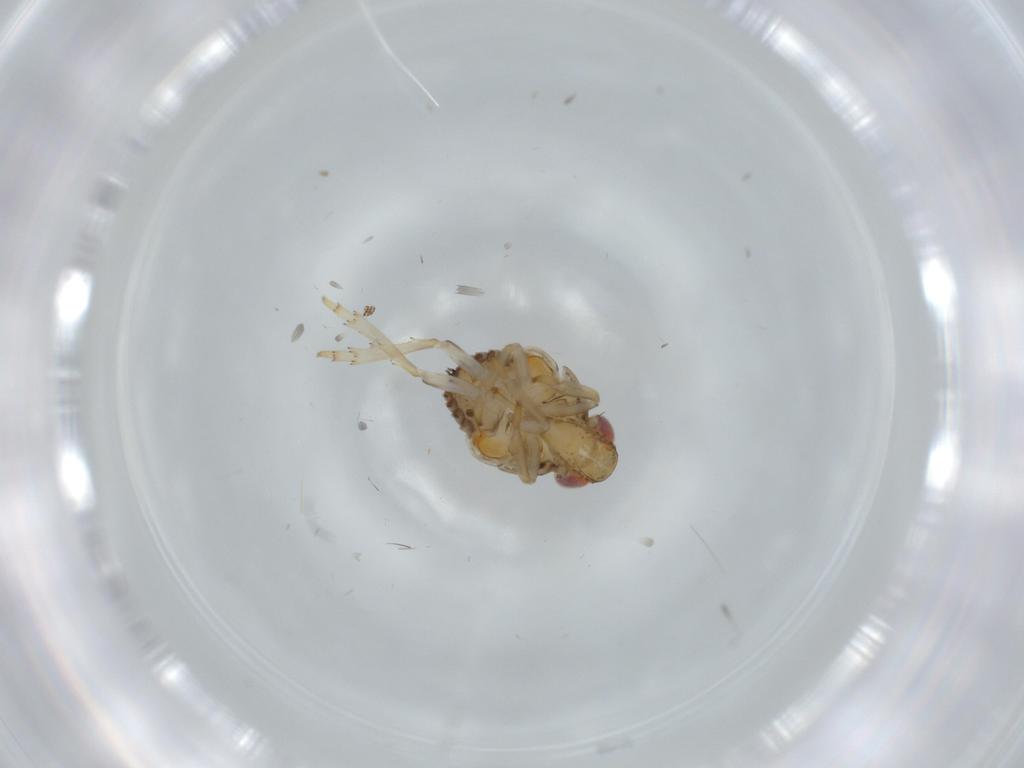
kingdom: Animalia
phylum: Arthropoda
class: Insecta
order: Hemiptera
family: Issidae
